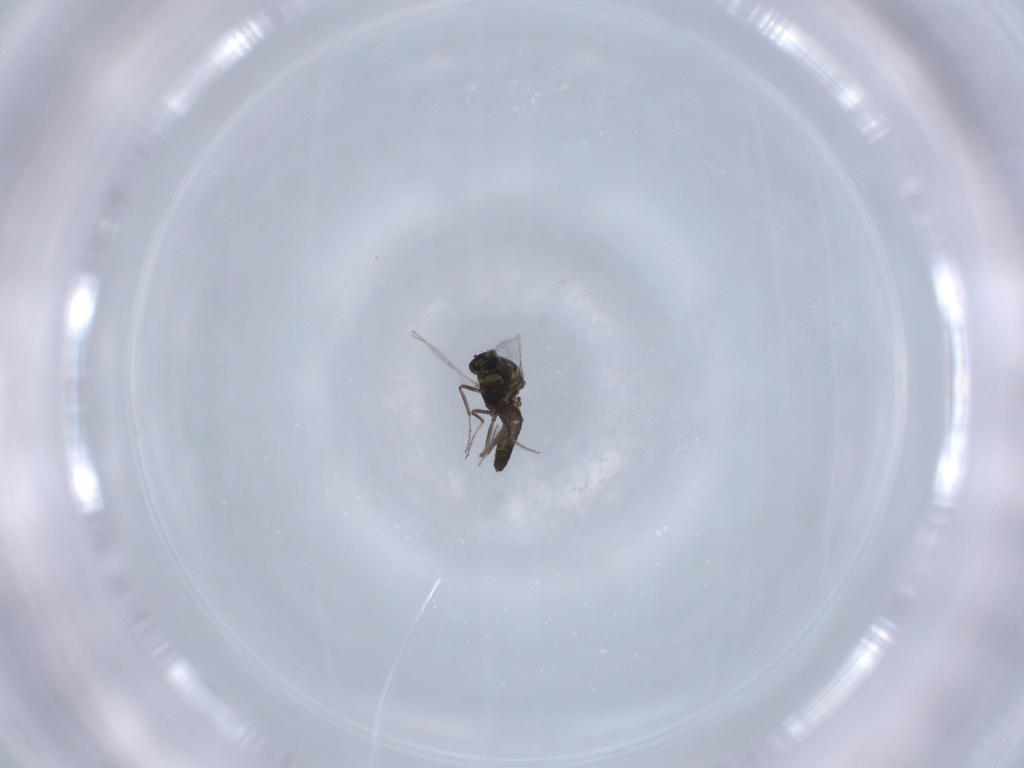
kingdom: Animalia
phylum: Arthropoda
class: Insecta
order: Diptera
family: Ceratopogonidae
